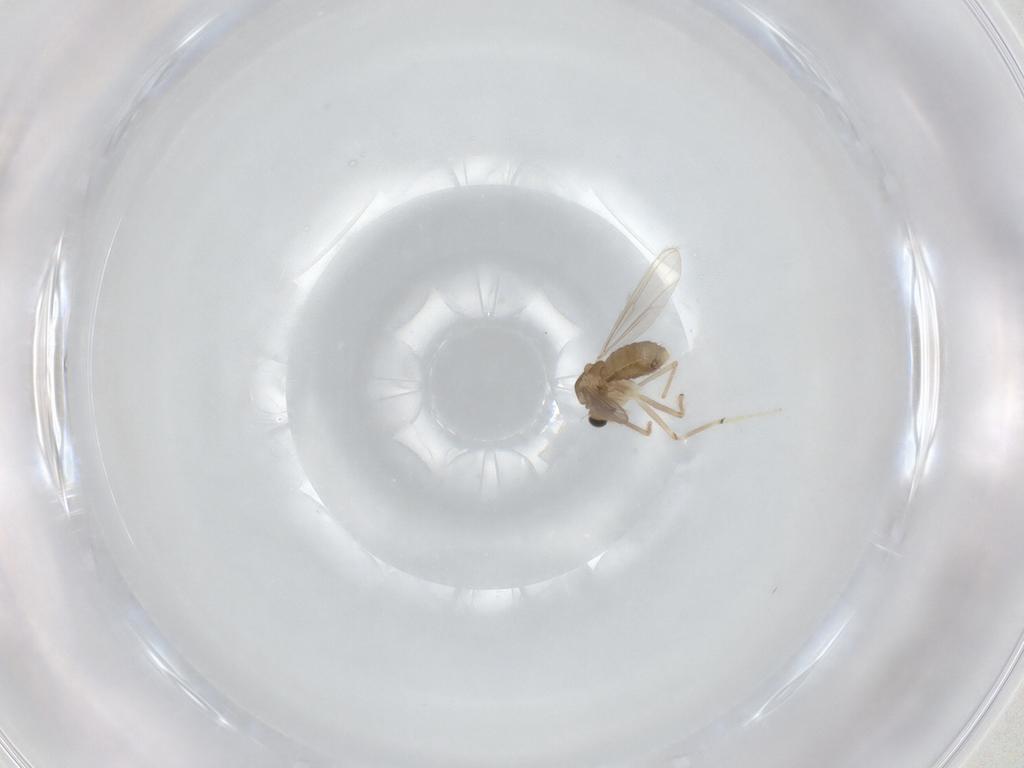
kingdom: Animalia
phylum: Arthropoda
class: Insecta
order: Diptera
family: Chironomidae
